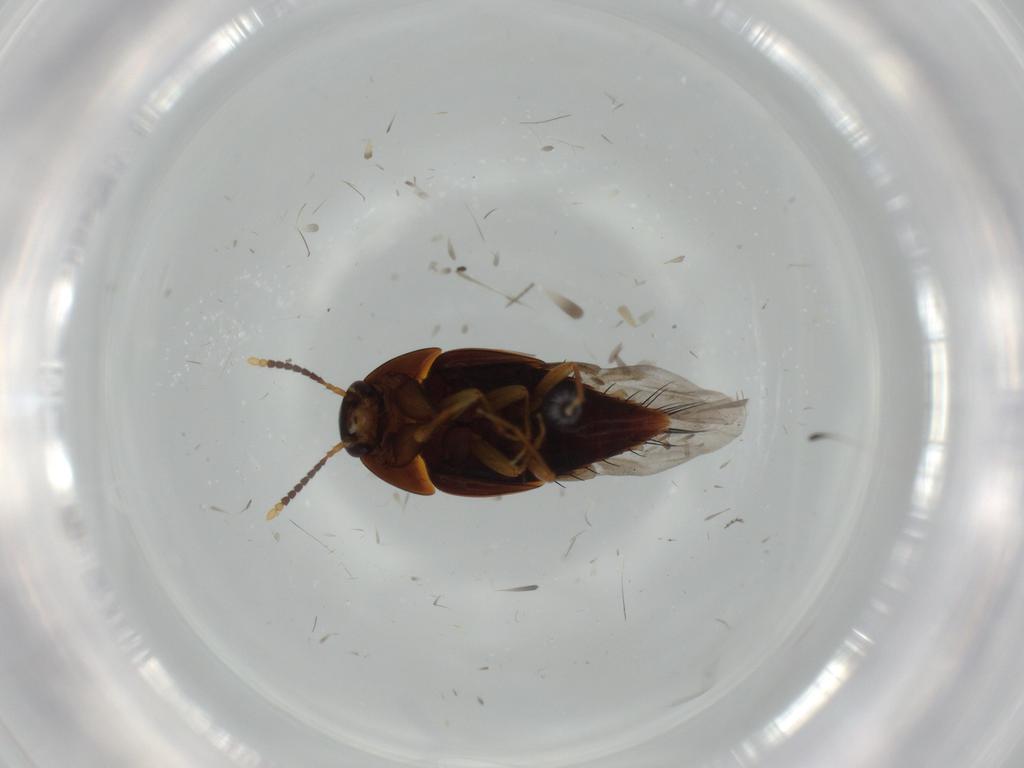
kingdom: Animalia
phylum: Arthropoda
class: Insecta
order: Coleoptera
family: Staphylinidae
